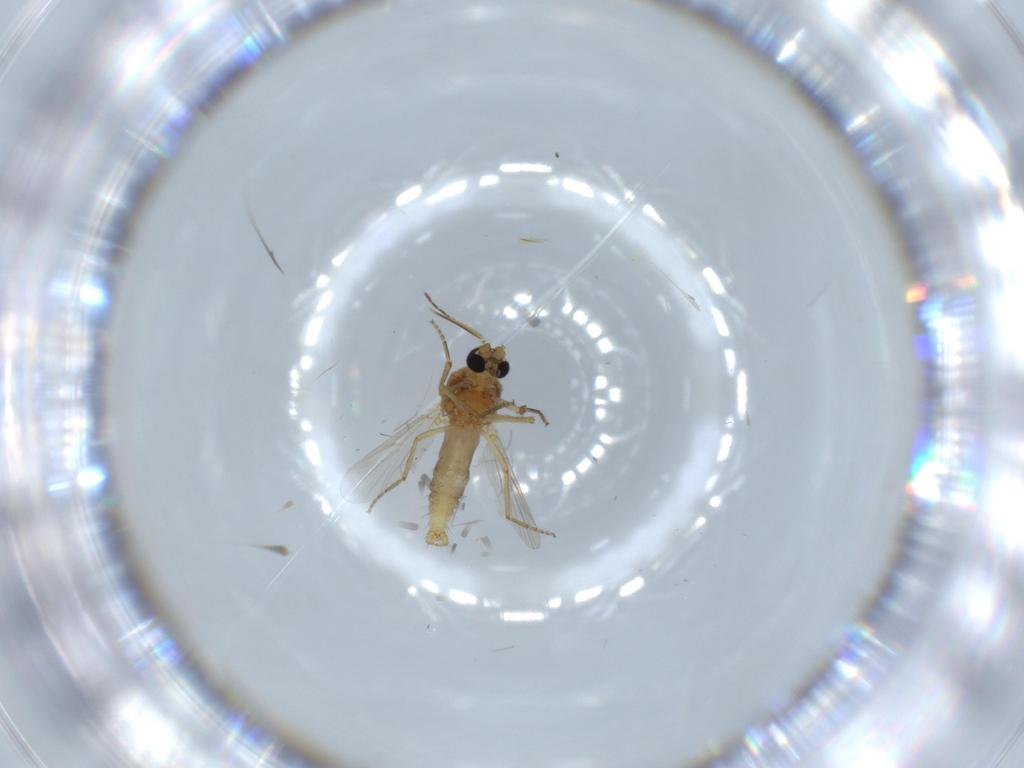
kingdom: Animalia
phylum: Arthropoda
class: Insecta
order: Diptera
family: Ceratopogonidae
